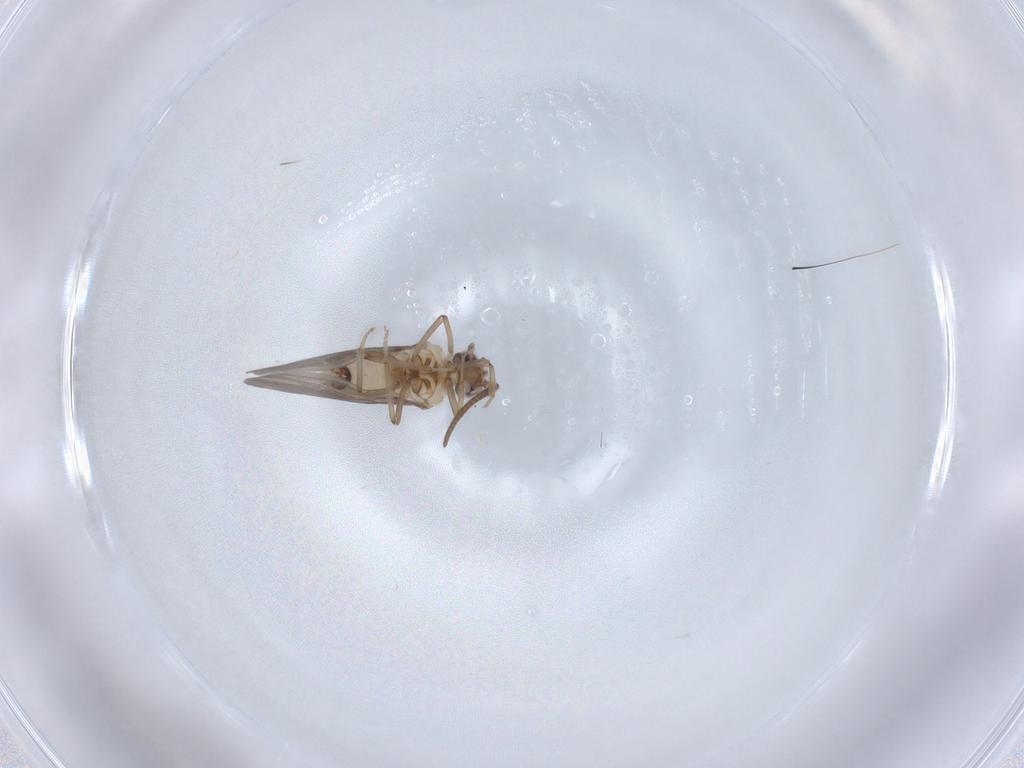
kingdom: Animalia
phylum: Arthropoda
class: Insecta
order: Neuroptera
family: Coniopterygidae
